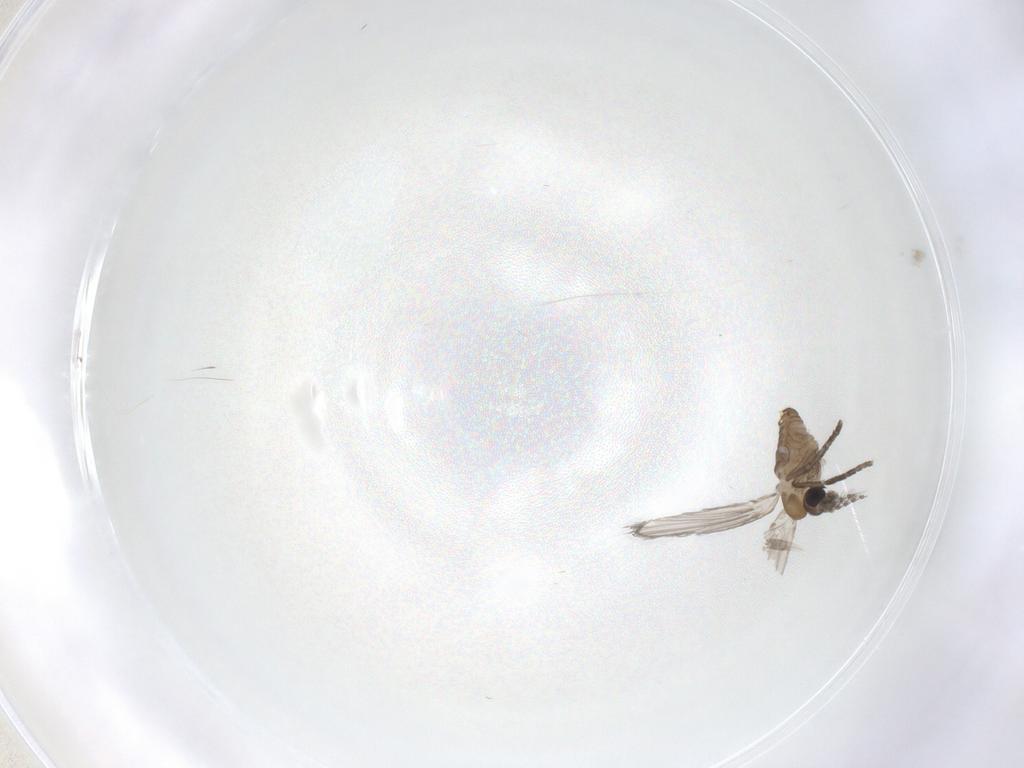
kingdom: Animalia
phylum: Arthropoda
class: Insecta
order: Diptera
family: Psychodidae
